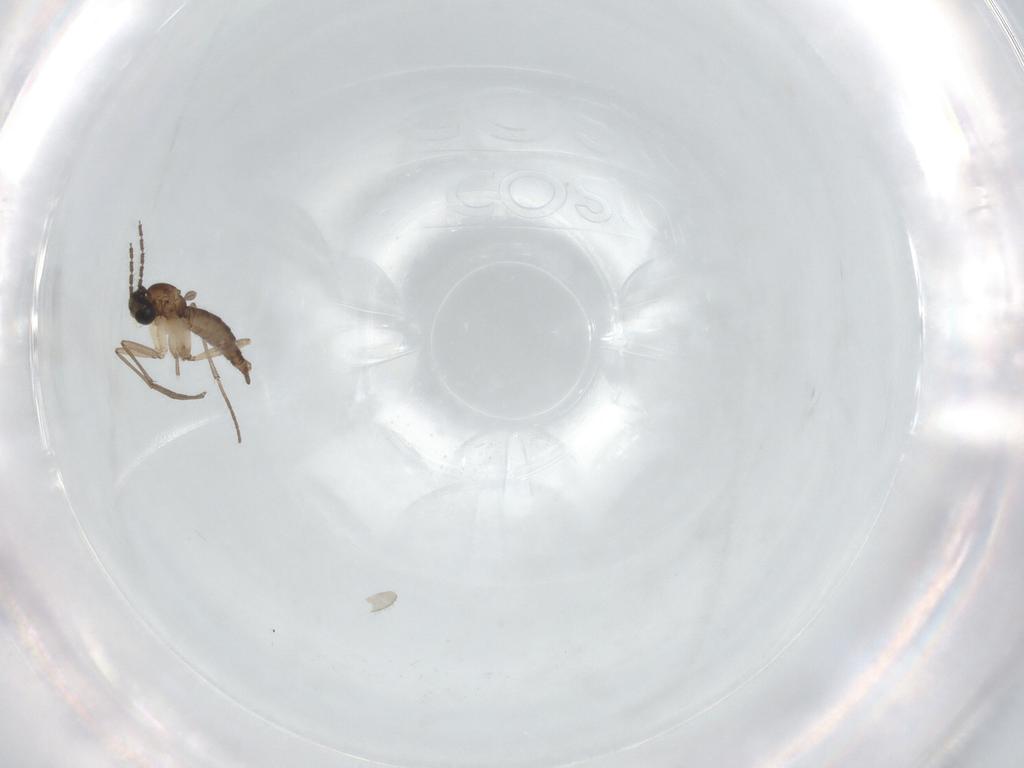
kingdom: Animalia
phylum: Arthropoda
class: Insecta
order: Diptera
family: Sciaridae
